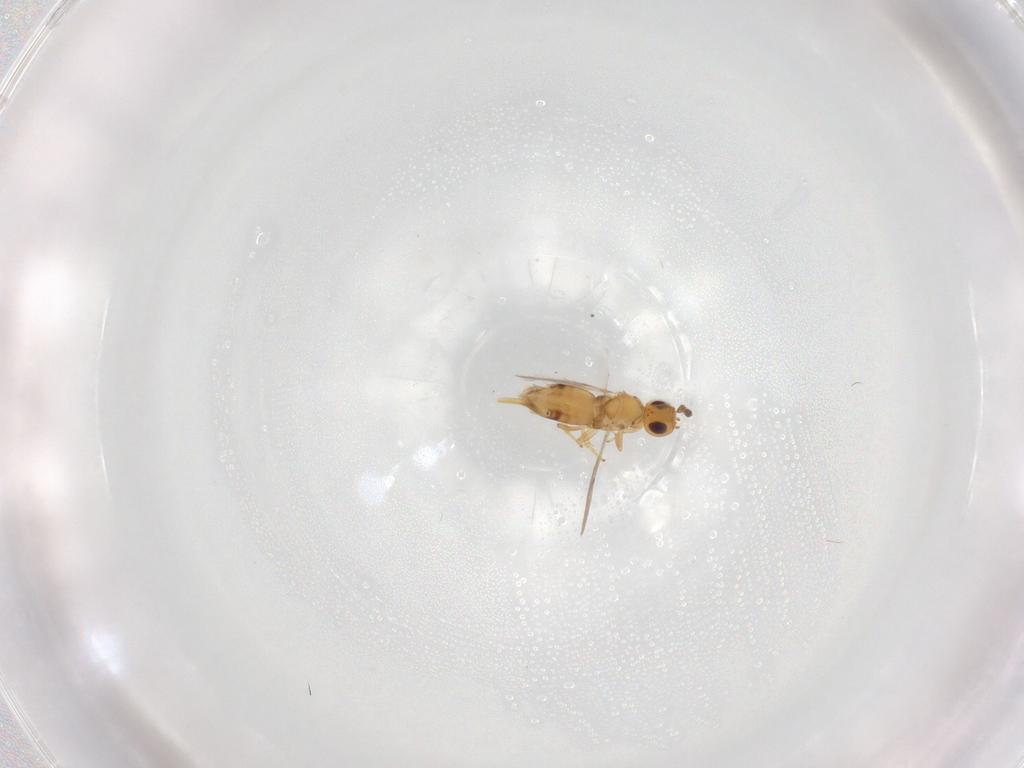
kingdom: Animalia
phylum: Arthropoda
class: Insecta
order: Hymenoptera
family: Encyrtidae
